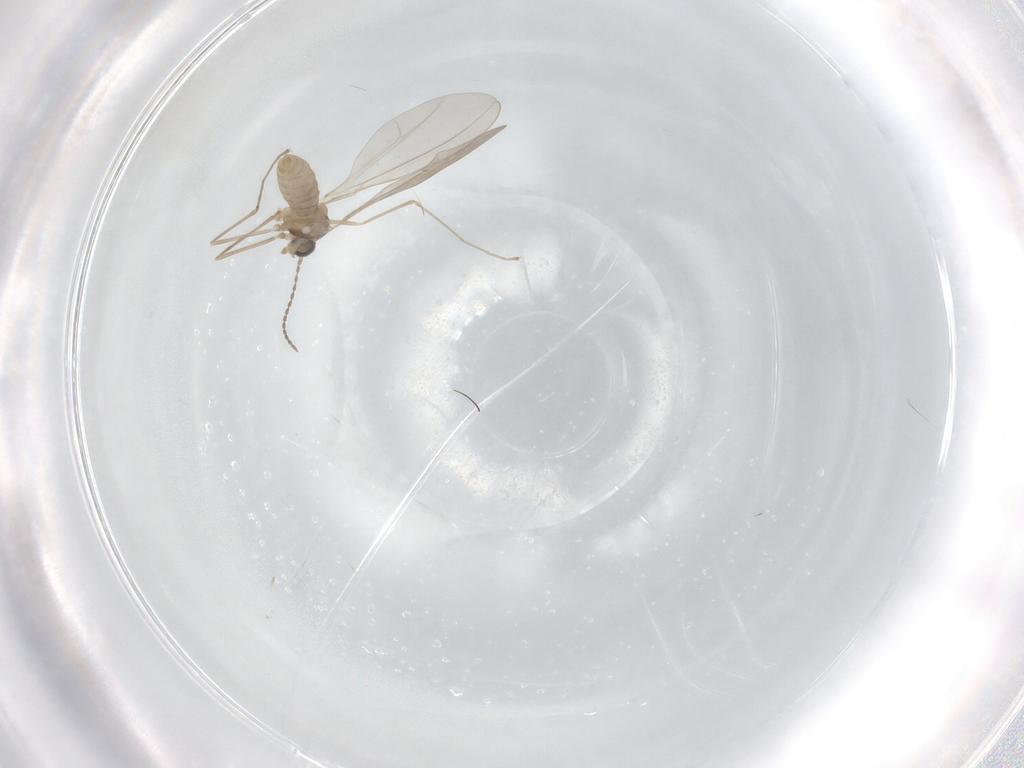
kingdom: Animalia
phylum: Arthropoda
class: Insecta
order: Diptera
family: Cecidomyiidae
